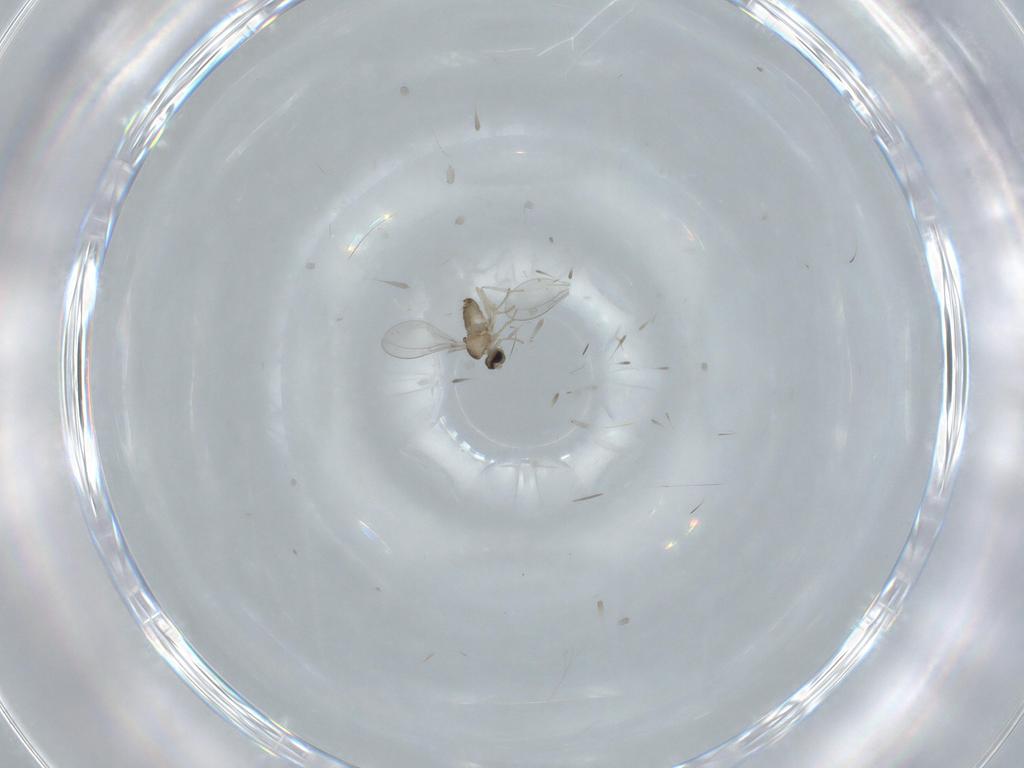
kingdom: Animalia
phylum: Arthropoda
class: Insecta
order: Diptera
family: Cecidomyiidae
